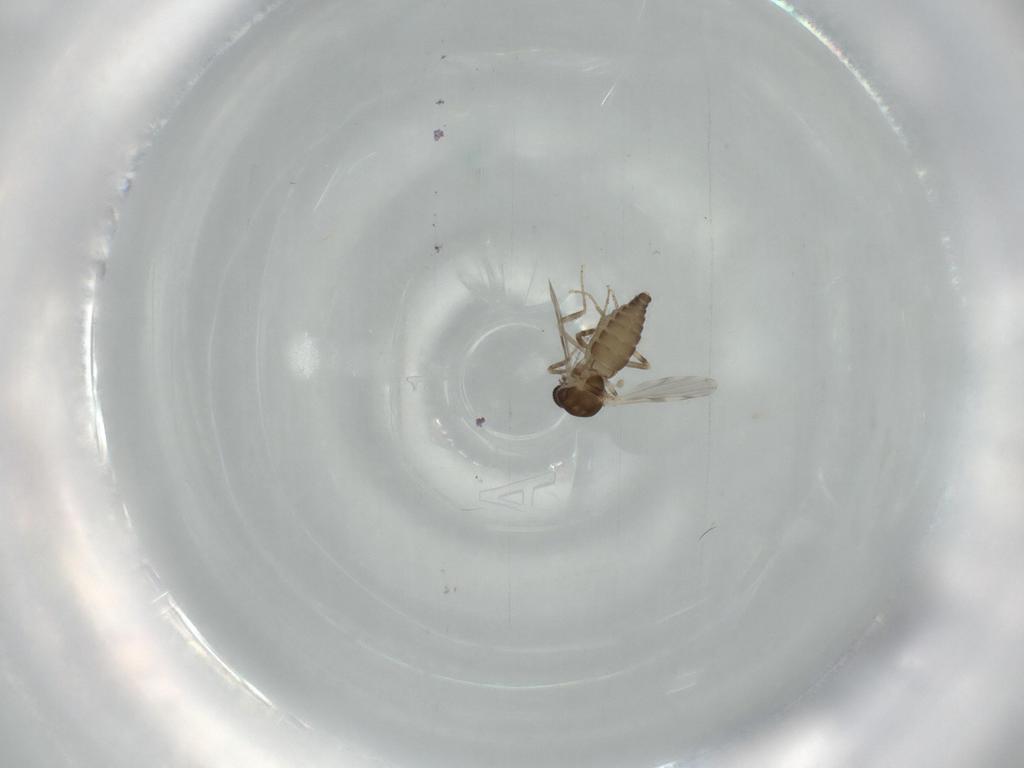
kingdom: Animalia
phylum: Arthropoda
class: Insecta
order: Diptera
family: Ceratopogonidae
